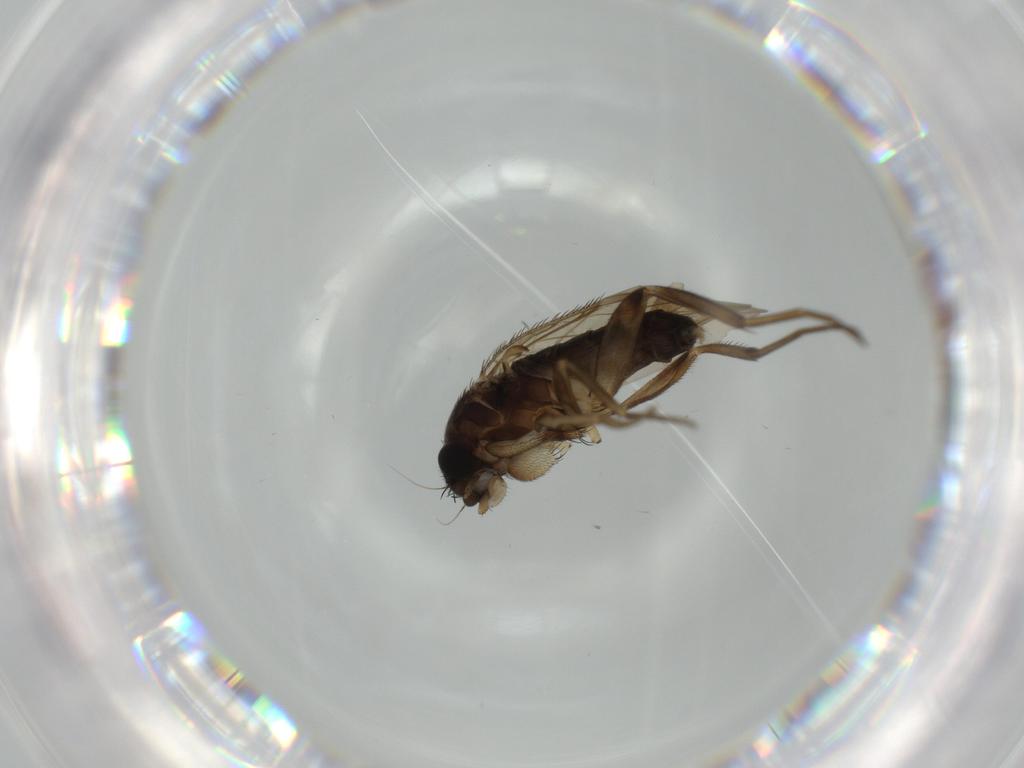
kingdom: Animalia
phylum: Arthropoda
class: Insecta
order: Diptera
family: Phoridae
